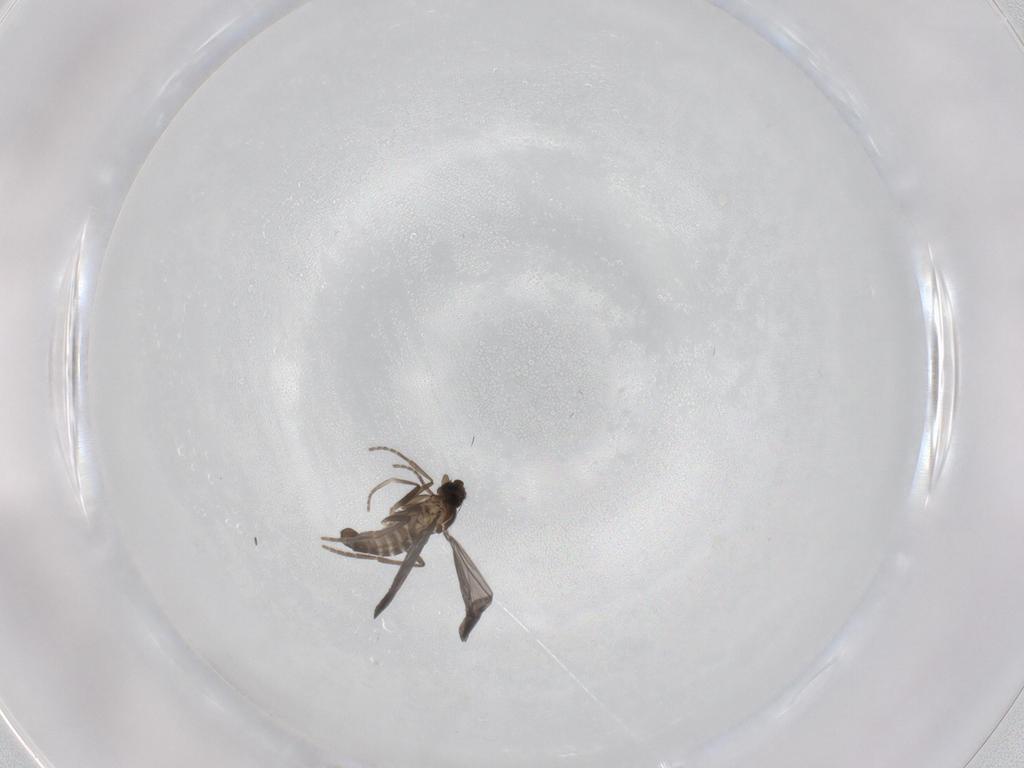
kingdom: Animalia
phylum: Arthropoda
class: Insecta
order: Diptera
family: Phoridae
